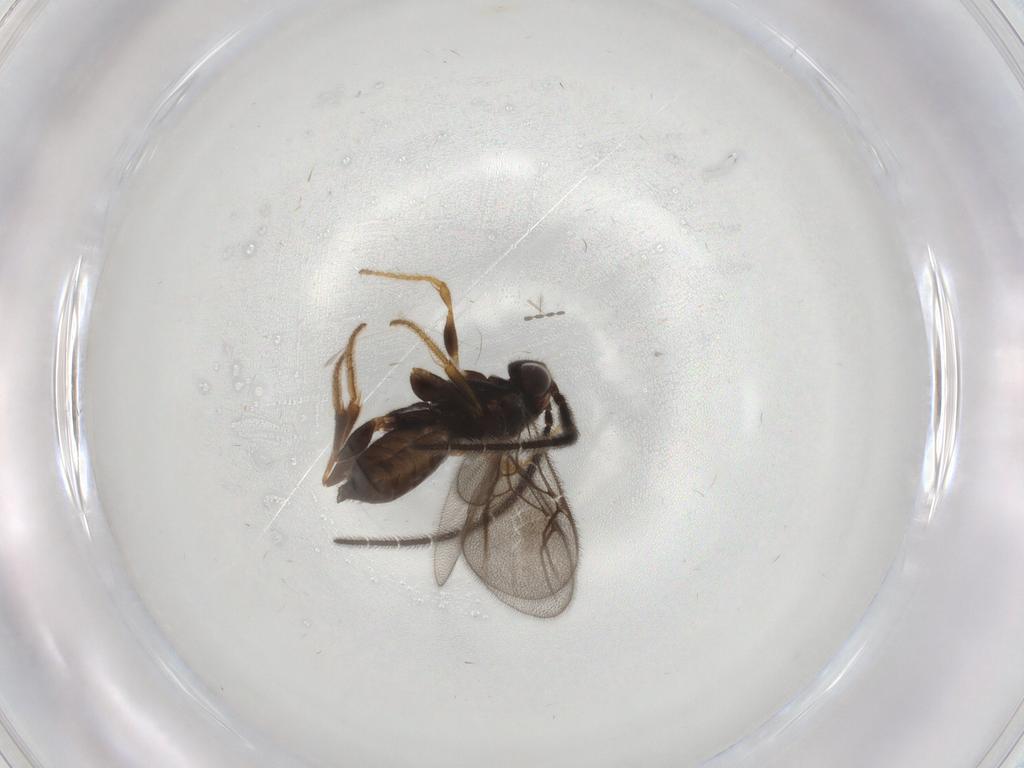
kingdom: Animalia
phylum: Arthropoda
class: Insecta
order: Hymenoptera
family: Dryinidae
